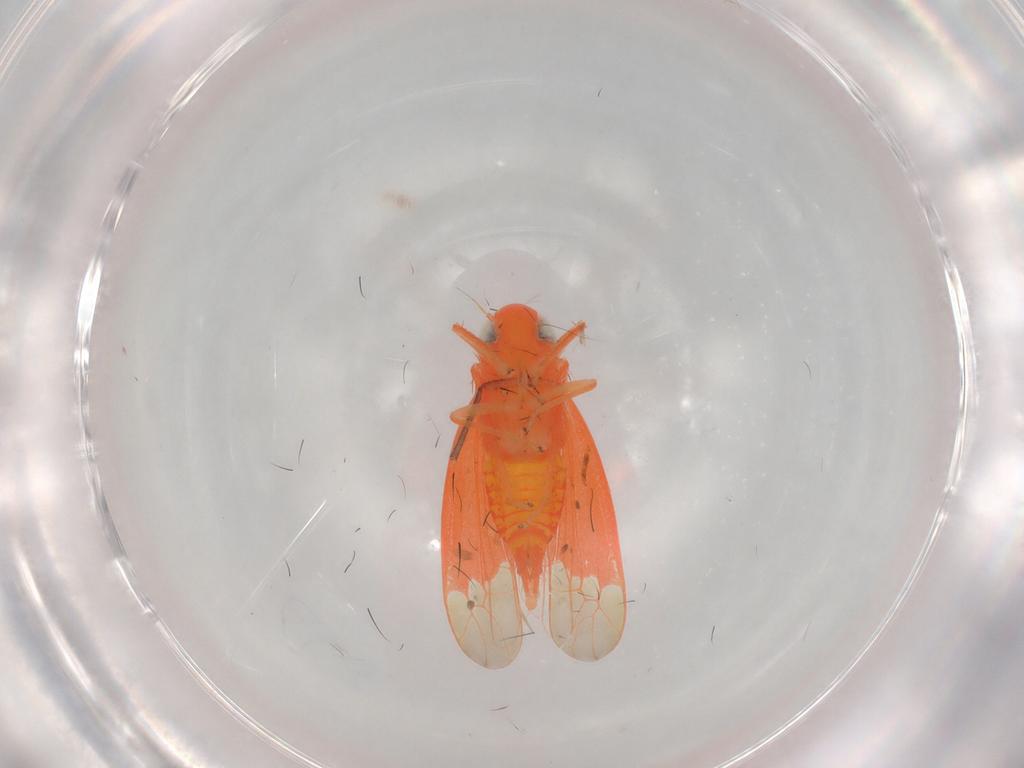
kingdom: Animalia
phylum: Arthropoda
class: Insecta
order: Hemiptera
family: Cicadellidae
